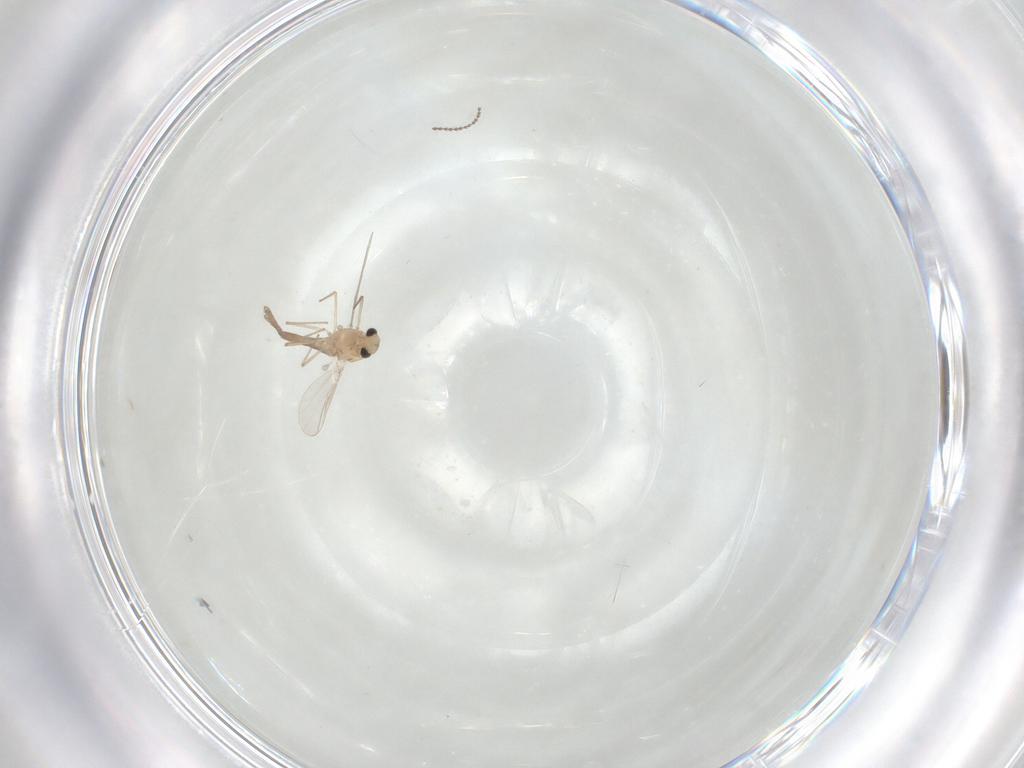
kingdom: Animalia
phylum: Arthropoda
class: Insecta
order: Diptera
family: Chironomidae
